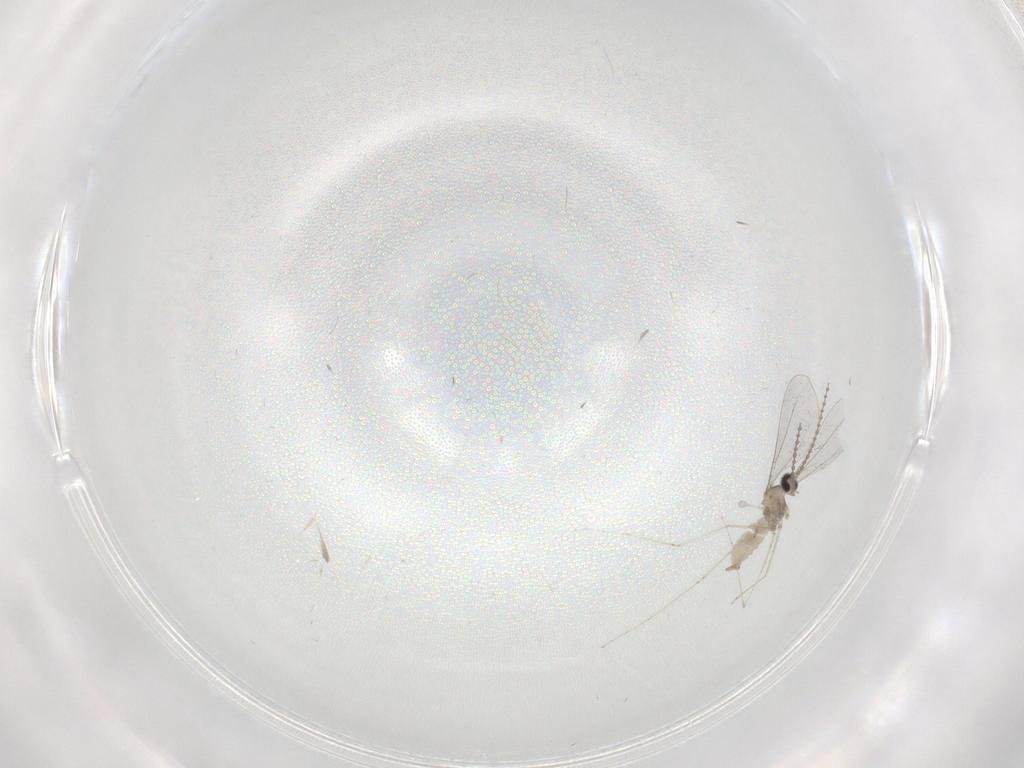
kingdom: Animalia
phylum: Arthropoda
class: Insecta
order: Diptera
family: Cecidomyiidae
